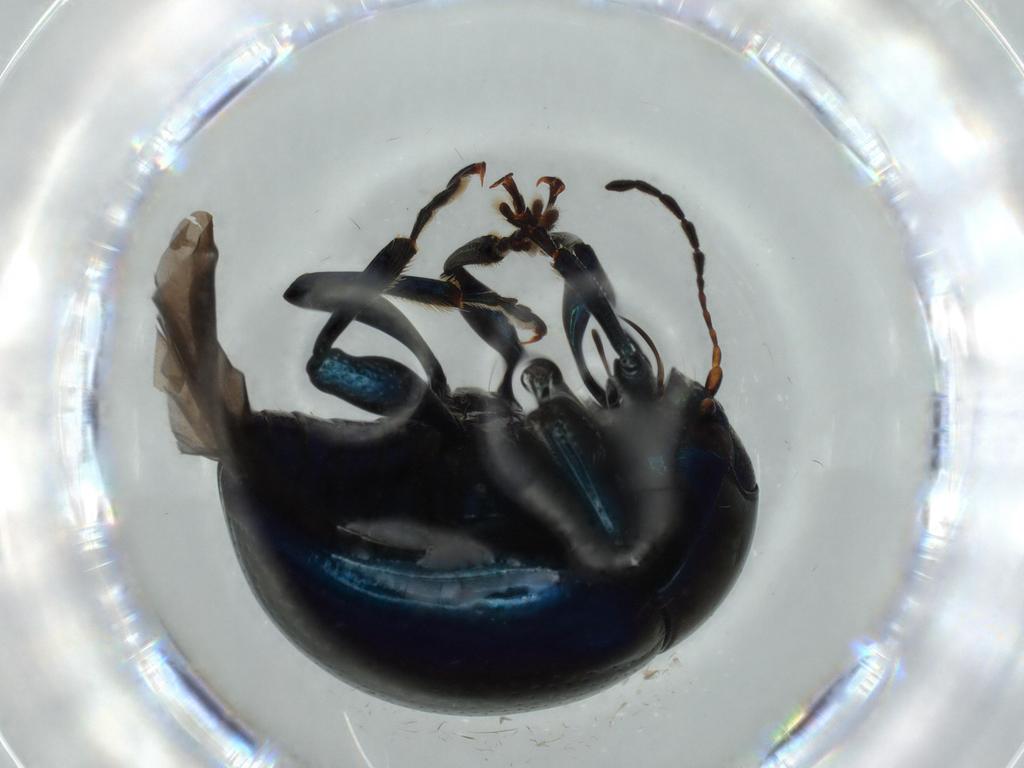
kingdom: Animalia
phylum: Arthropoda
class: Insecta
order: Coleoptera
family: Chrysomelidae
